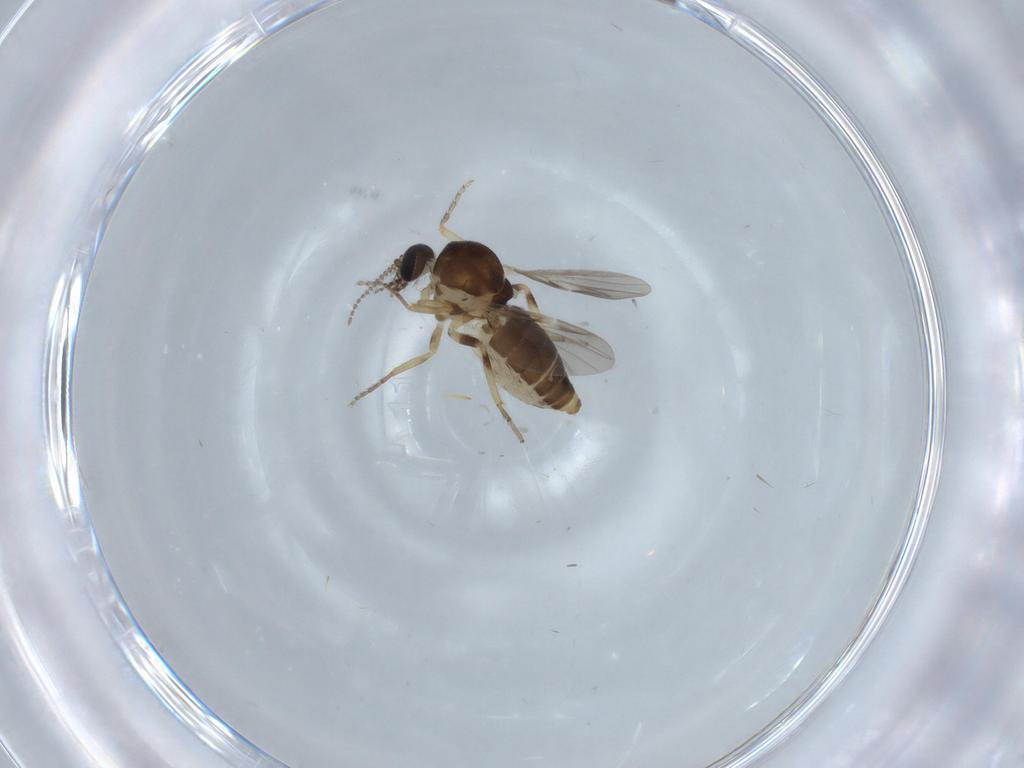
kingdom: Animalia
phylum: Arthropoda
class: Insecta
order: Diptera
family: Ceratopogonidae
